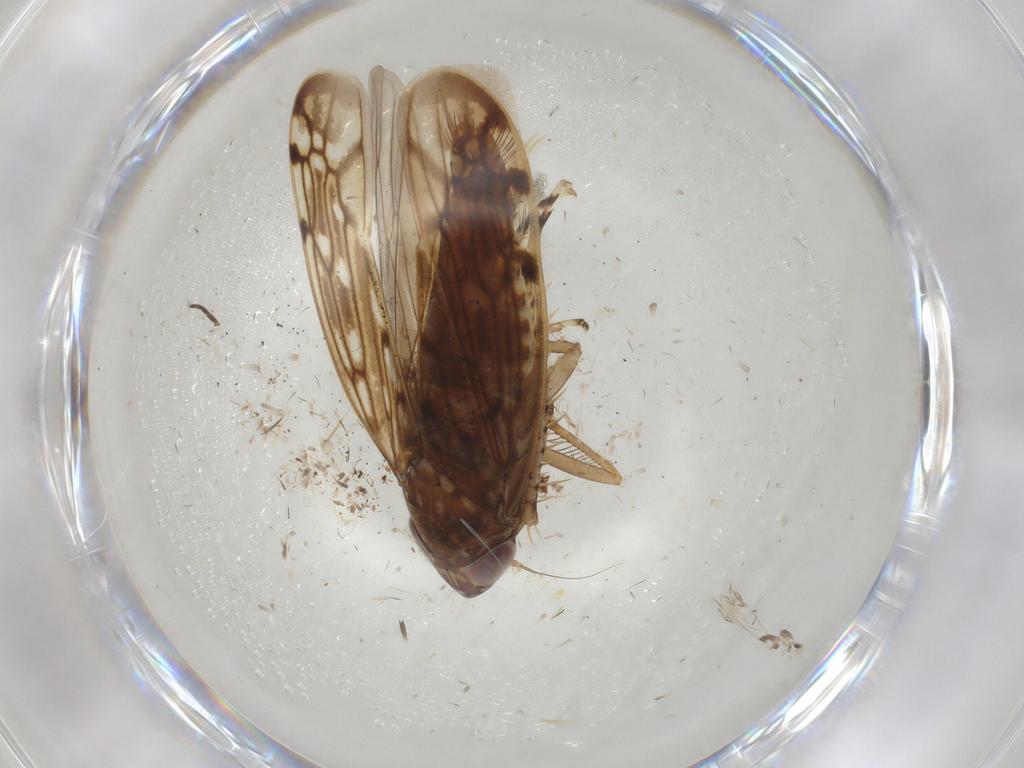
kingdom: Animalia
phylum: Arthropoda
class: Insecta
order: Hemiptera
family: Cicadellidae
